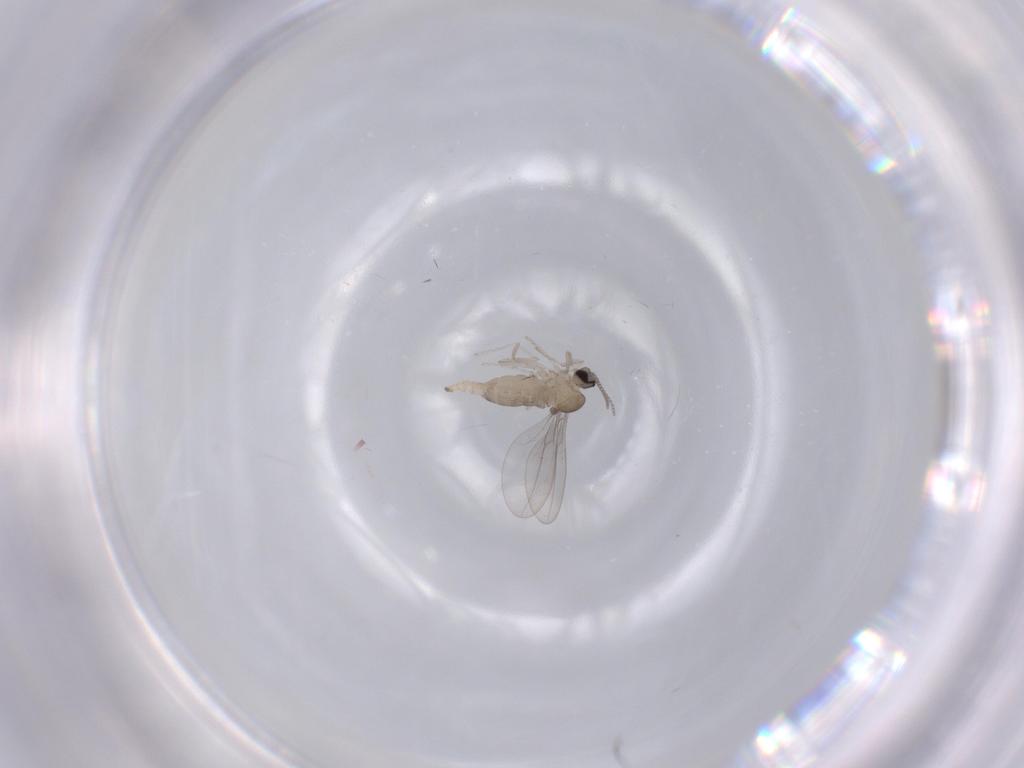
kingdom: Animalia
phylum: Arthropoda
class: Insecta
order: Diptera
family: Cecidomyiidae
